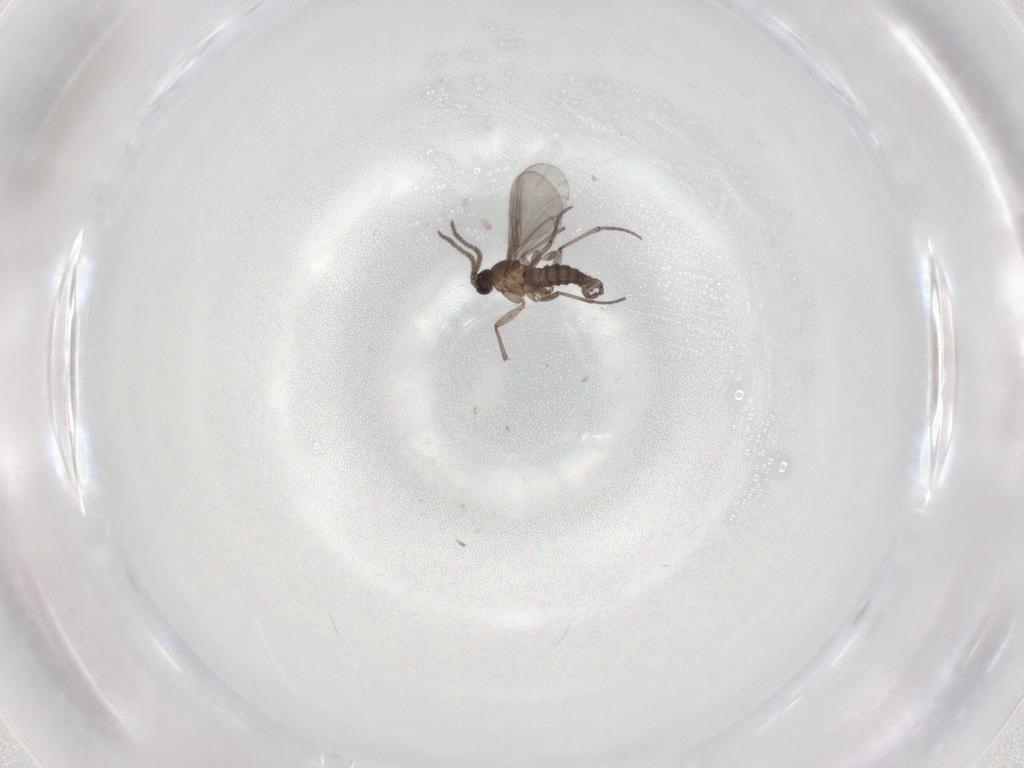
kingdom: Animalia
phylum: Arthropoda
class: Insecta
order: Diptera
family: Sciaridae
